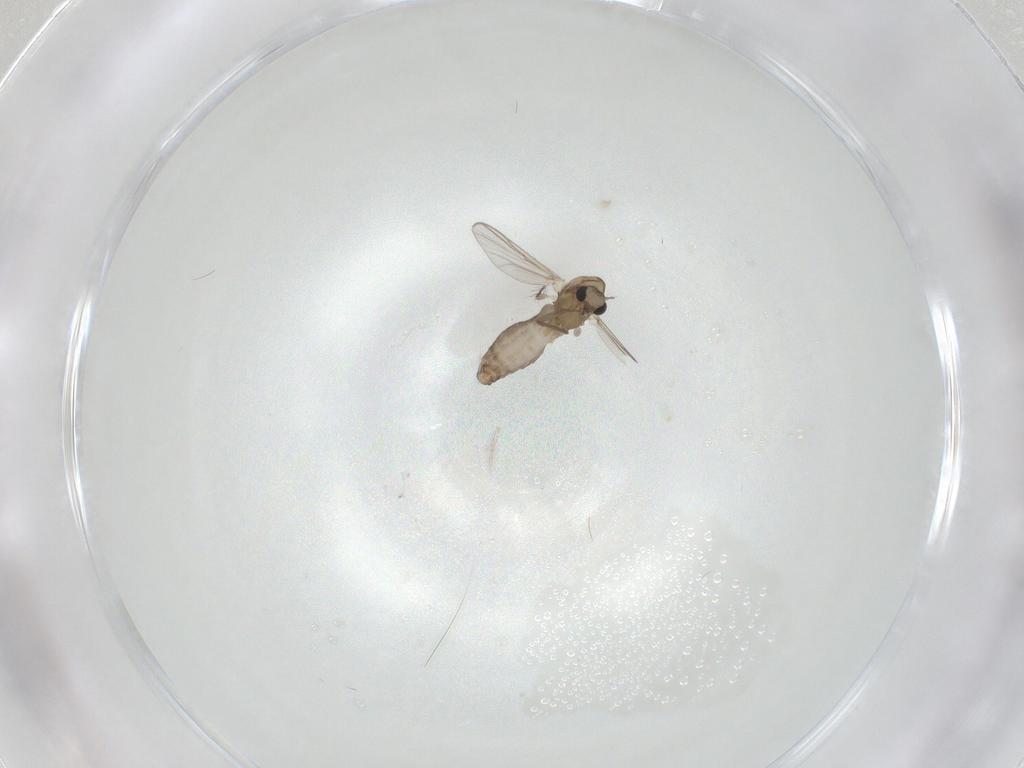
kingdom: Animalia
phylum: Arthropoda
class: Insecta
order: Diptera
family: Chironomidae
